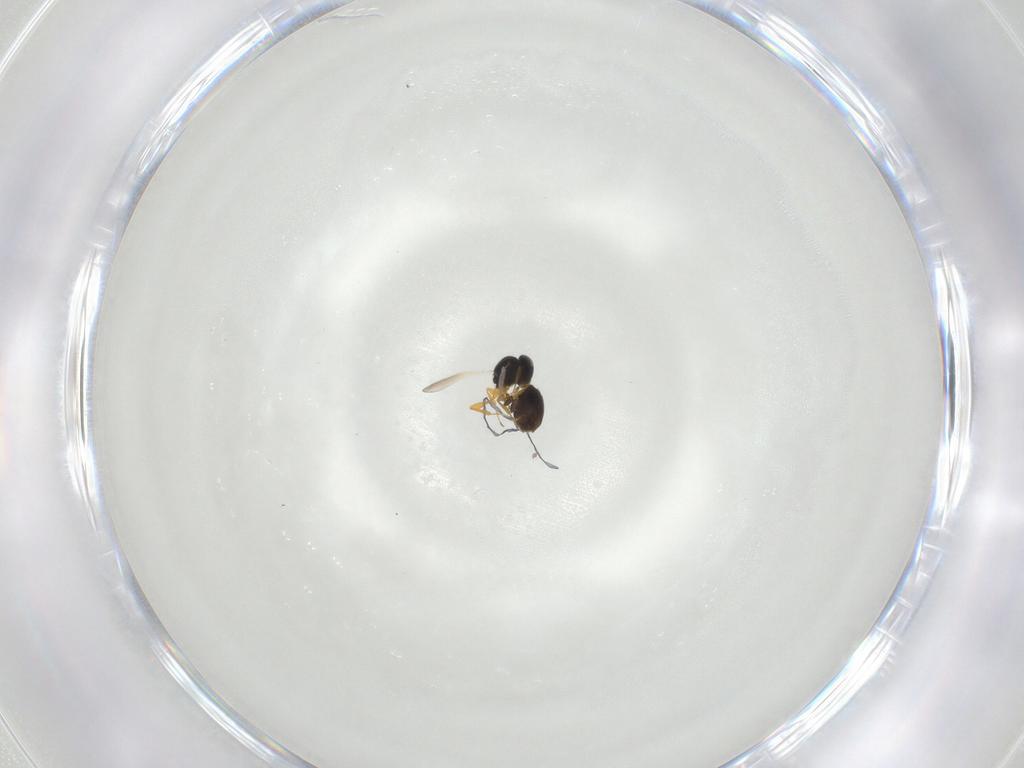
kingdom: Animalia
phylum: Arthropoda
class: Insecta
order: Hymenoptera
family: Platygastridae
